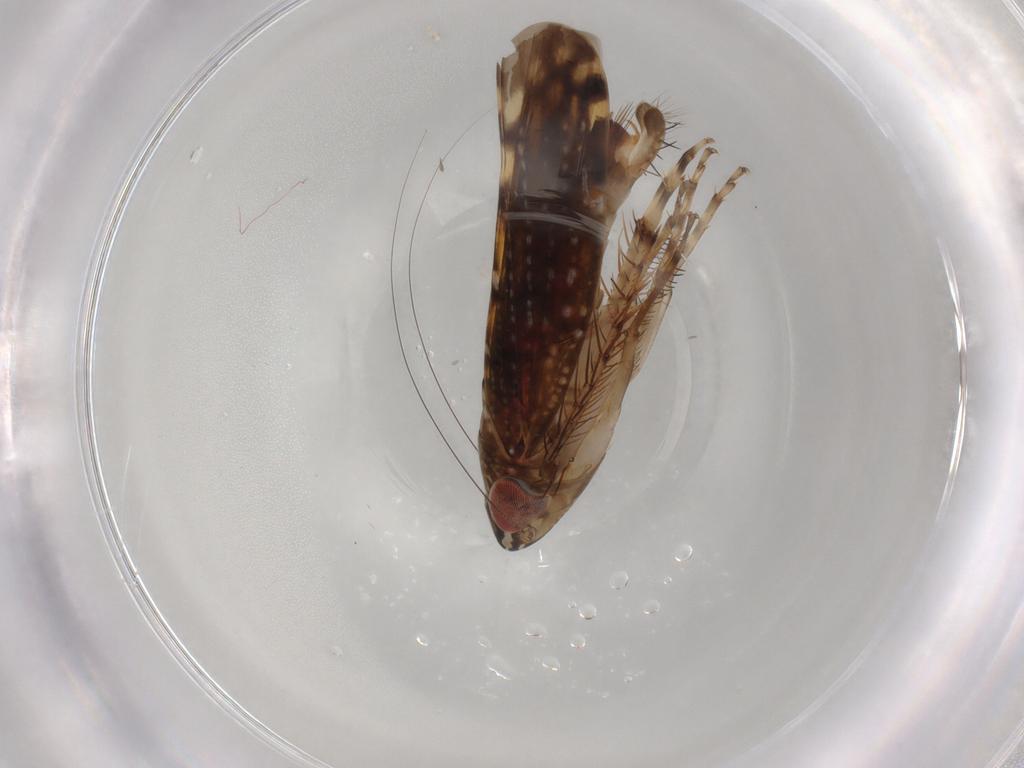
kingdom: Animalia
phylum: Arthropoda
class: Insecta
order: Hemiptera
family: Cicadellidae
